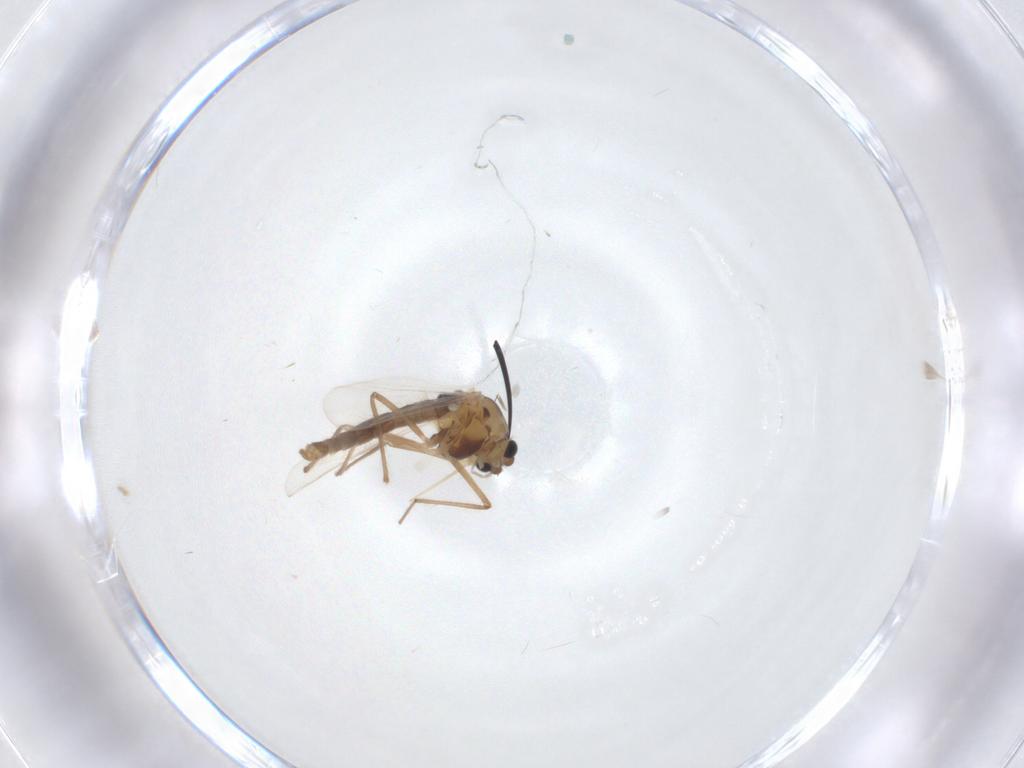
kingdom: Animalia
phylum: Arthropoda
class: Insecta
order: Diptera
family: Chironomidae
